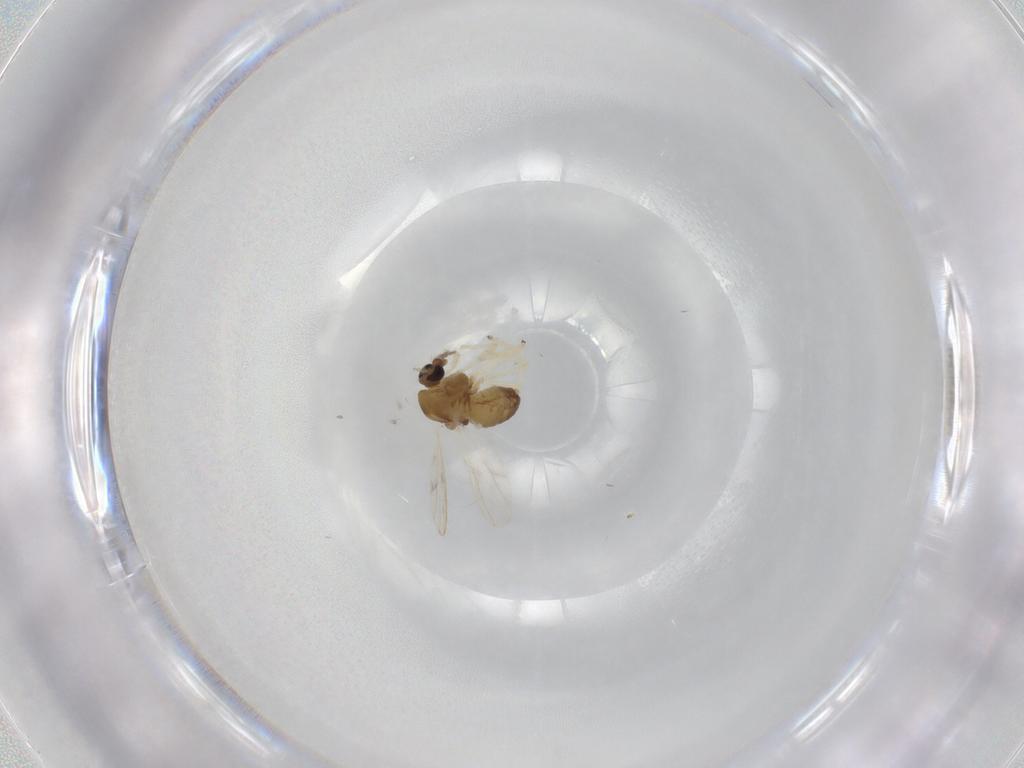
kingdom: Animalia
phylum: Arthropoda
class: Insecta
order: Diptera
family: Chironomidae
